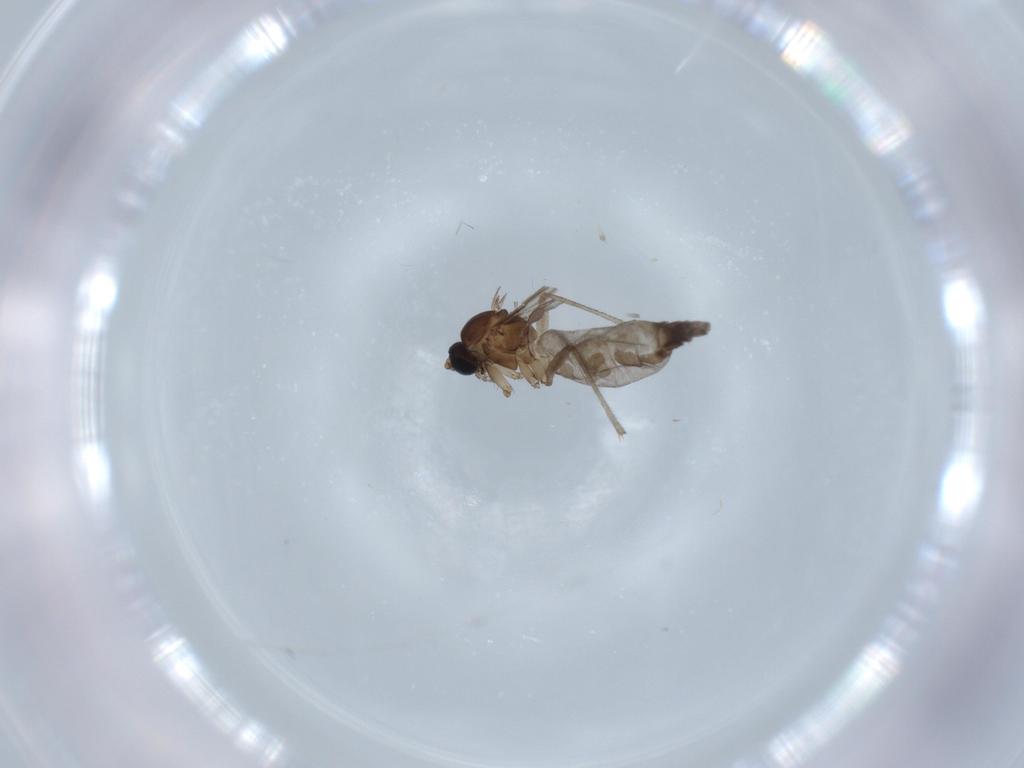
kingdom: Animalia
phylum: Arthropoda
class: Insecta
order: Diptera
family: Sciaridae
